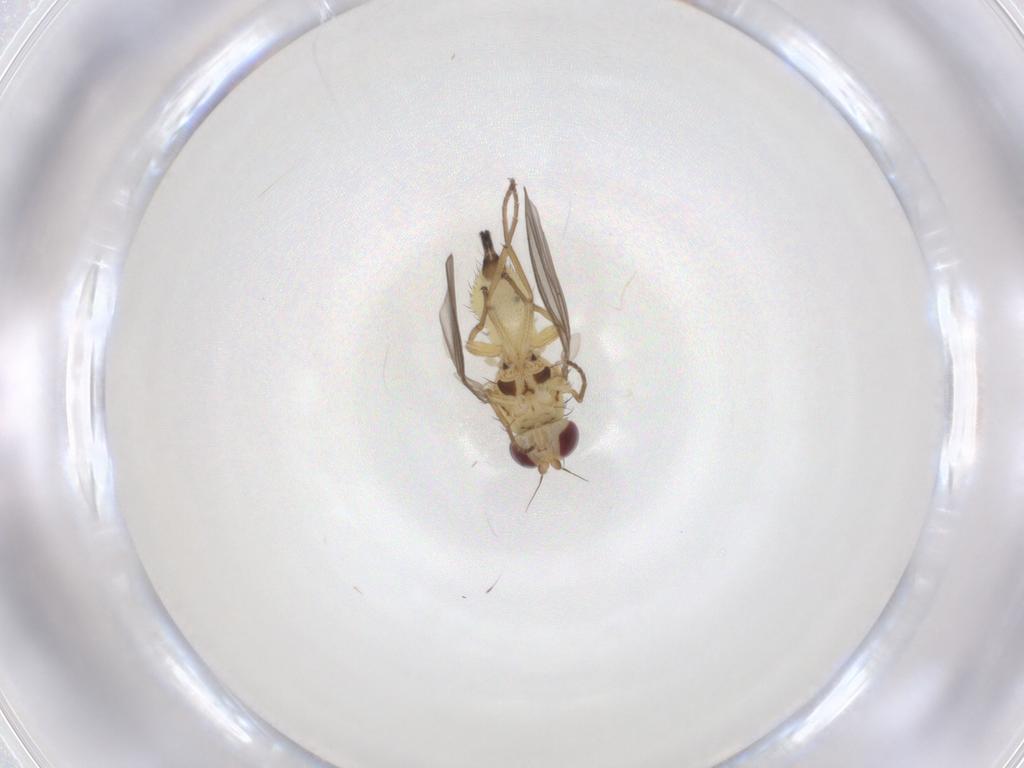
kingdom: Animalia
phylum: Arthropoda
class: Insecta
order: Diptera
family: Agromyzidae
